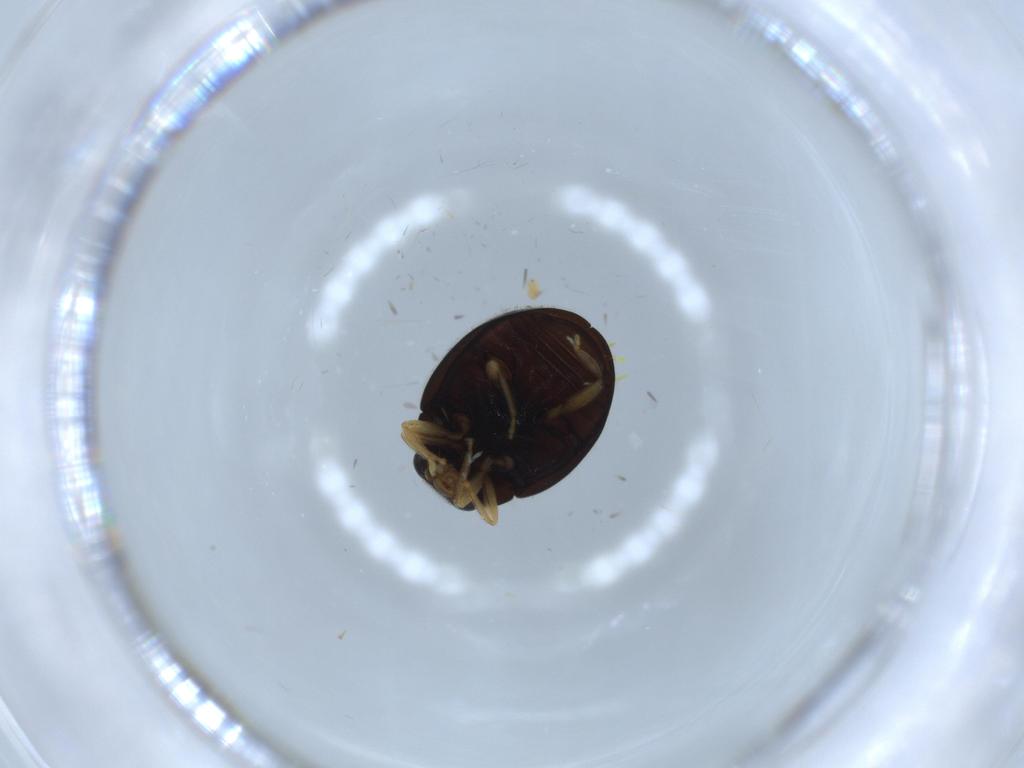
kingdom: Animalia
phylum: Arthropoda
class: Insecta
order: Coleoptera
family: Coccinellidae
